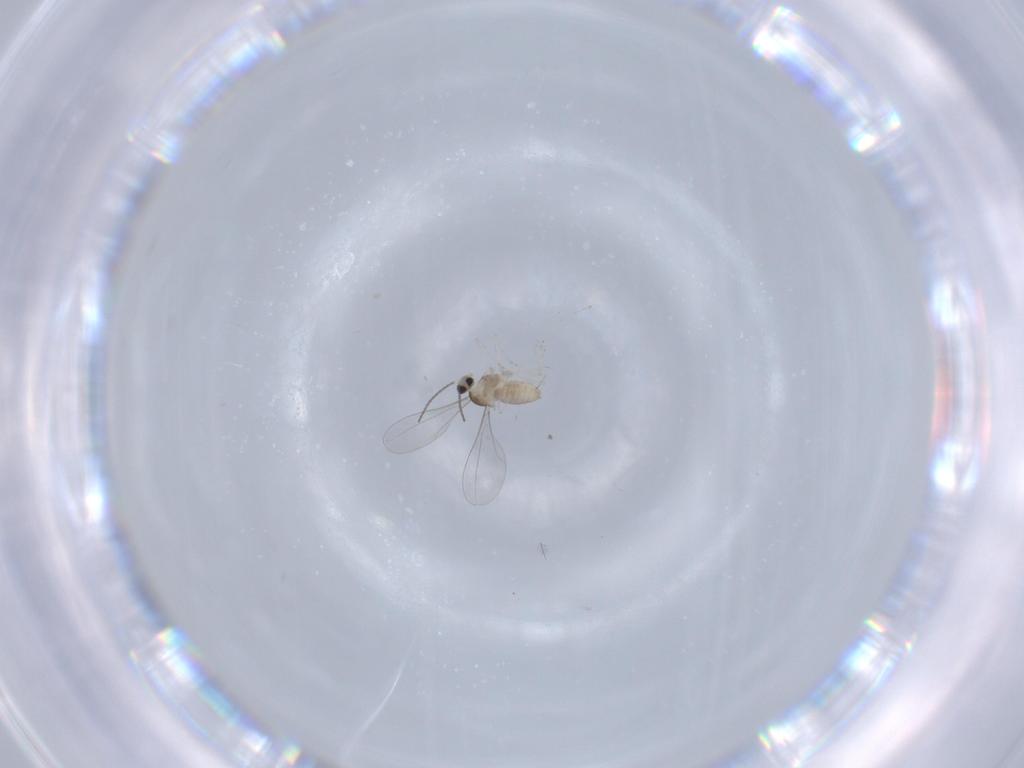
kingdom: Animalia
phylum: Arthropoda
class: Insecta
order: Diptera
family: Cecidomyiidae
